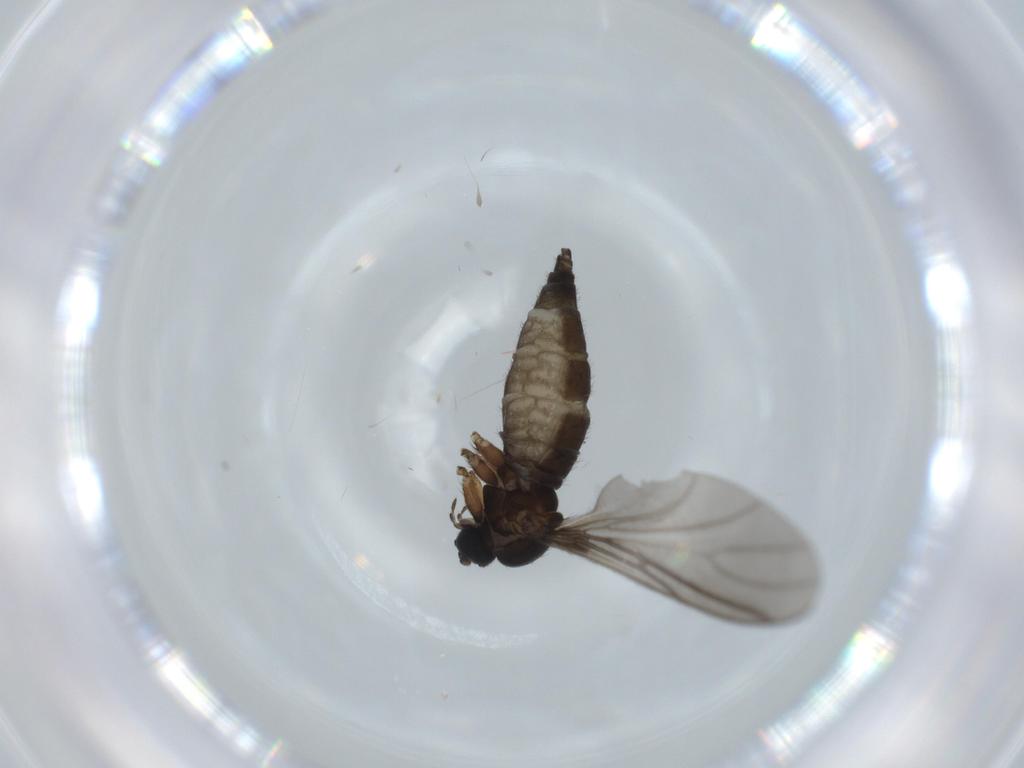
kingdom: Animalia
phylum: Arthropoda
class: Insecta
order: Diptera
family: Sciaridae
